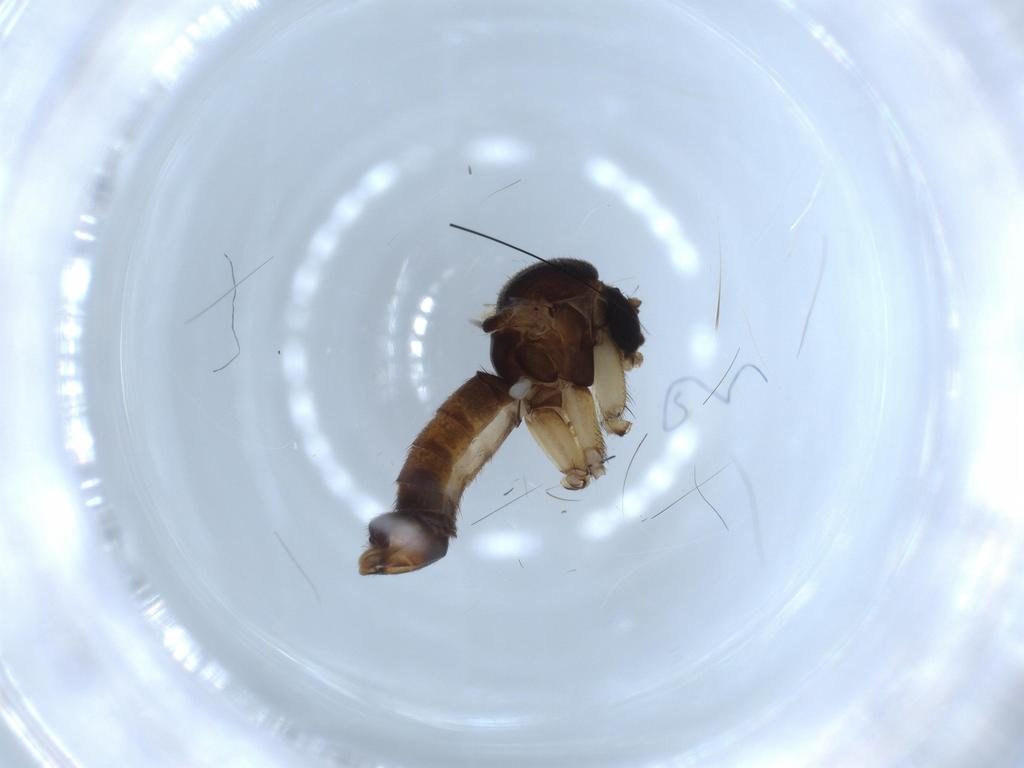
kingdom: Animalia
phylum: Arthropoda
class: Insecta
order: Diptera
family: Mycetophilidae
